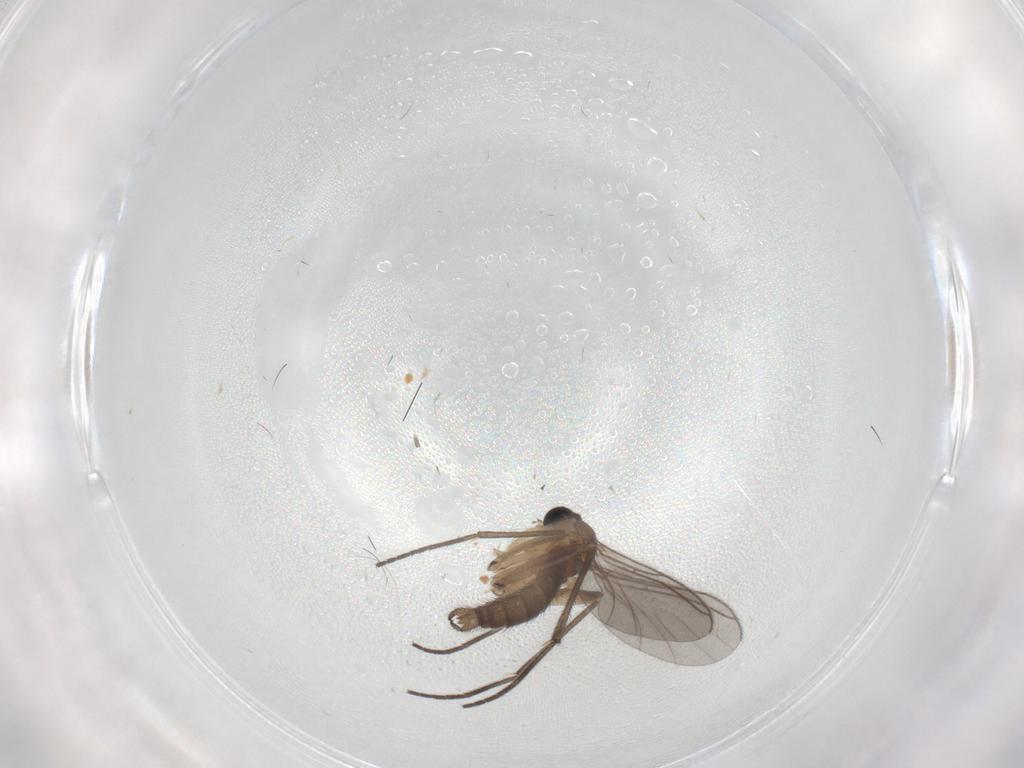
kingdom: Animalia
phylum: Arthropoda
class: Insecta
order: Diptera
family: Sciaridae
